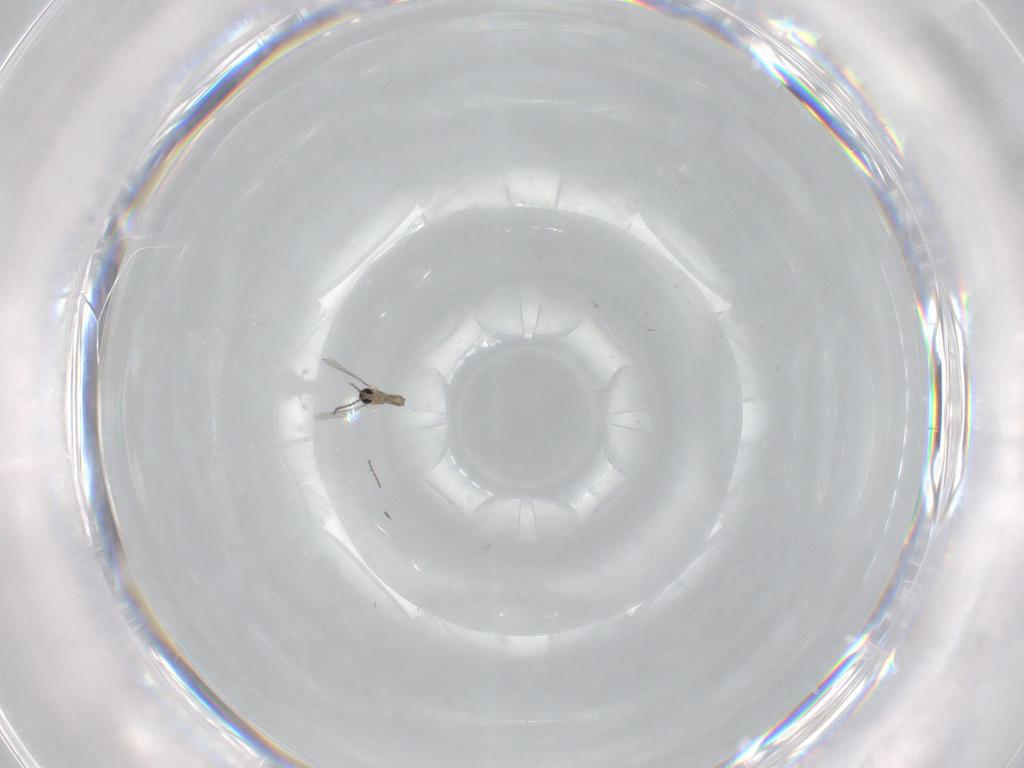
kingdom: Animalia
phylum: Arthropoda
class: Insecta
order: Diptera
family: Cecidomyiidae
